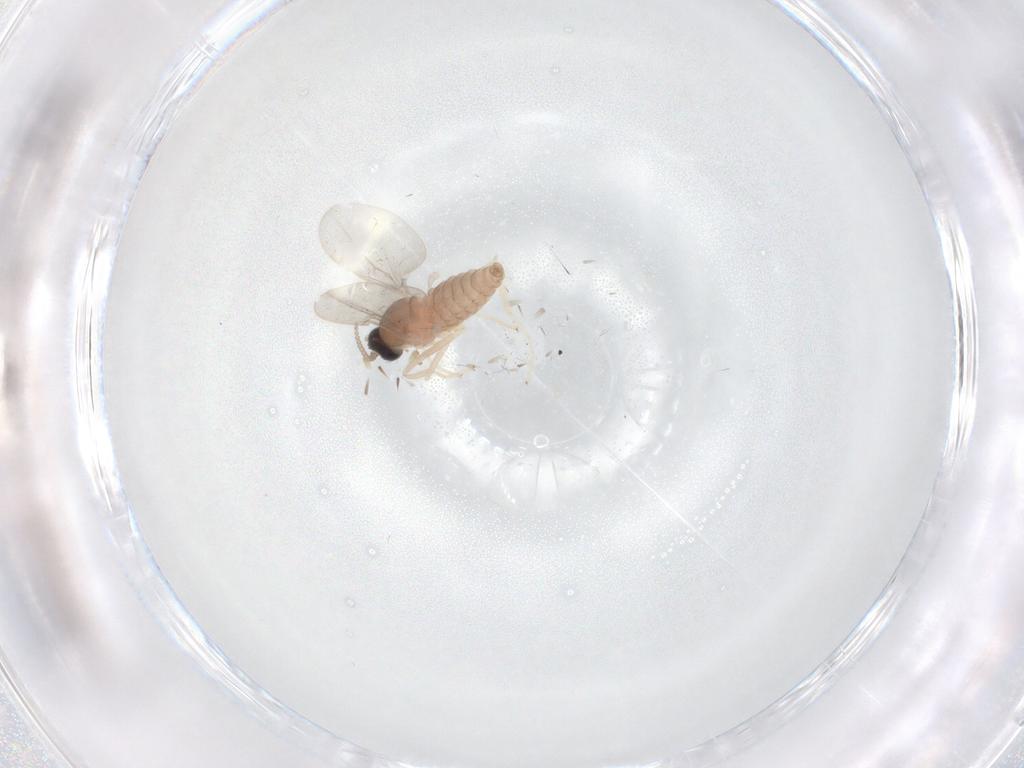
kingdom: Animalia
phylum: Arthropoda
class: Insecta
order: Diptera
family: Cecidomyiidae
